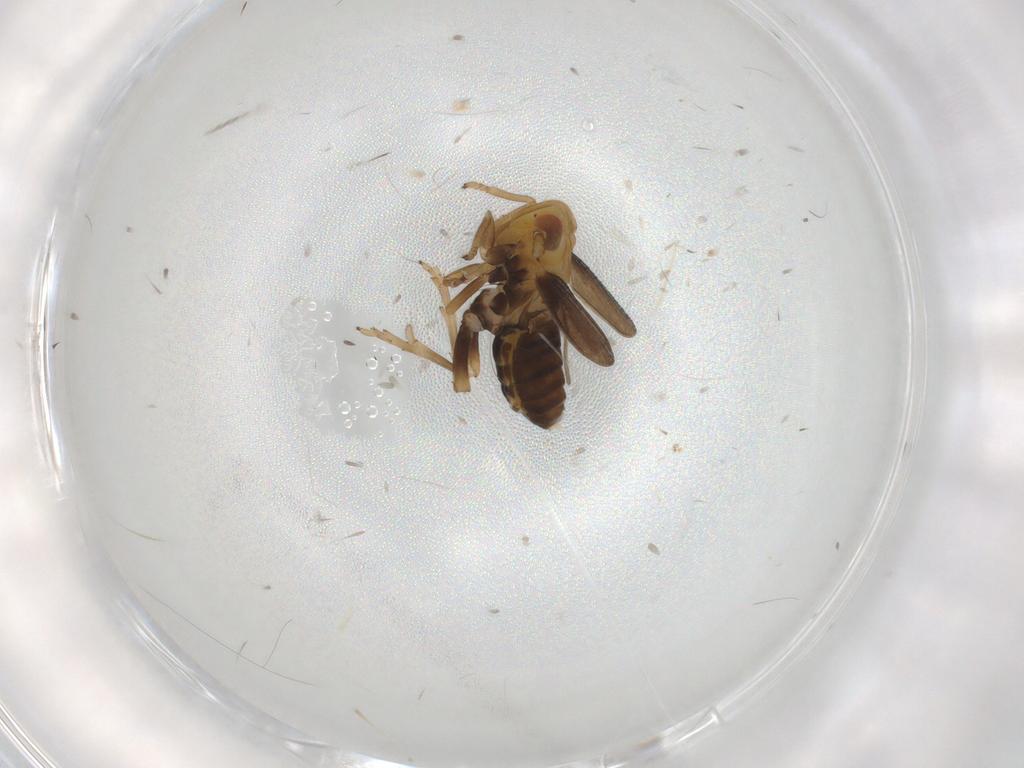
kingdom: Animalia
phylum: Arthropoda
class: Insecta
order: Hemiptera
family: Delphacidae
